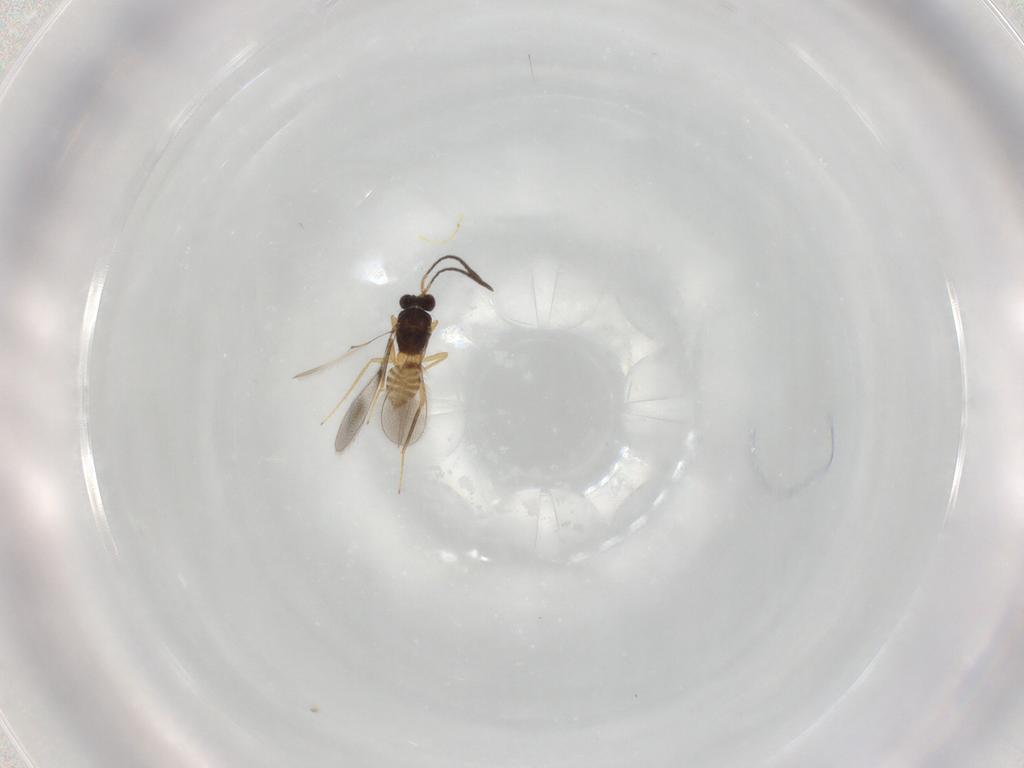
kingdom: Animalia
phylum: Arthropoda
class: Insecta
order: Hymenoptera
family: Mymaridae
